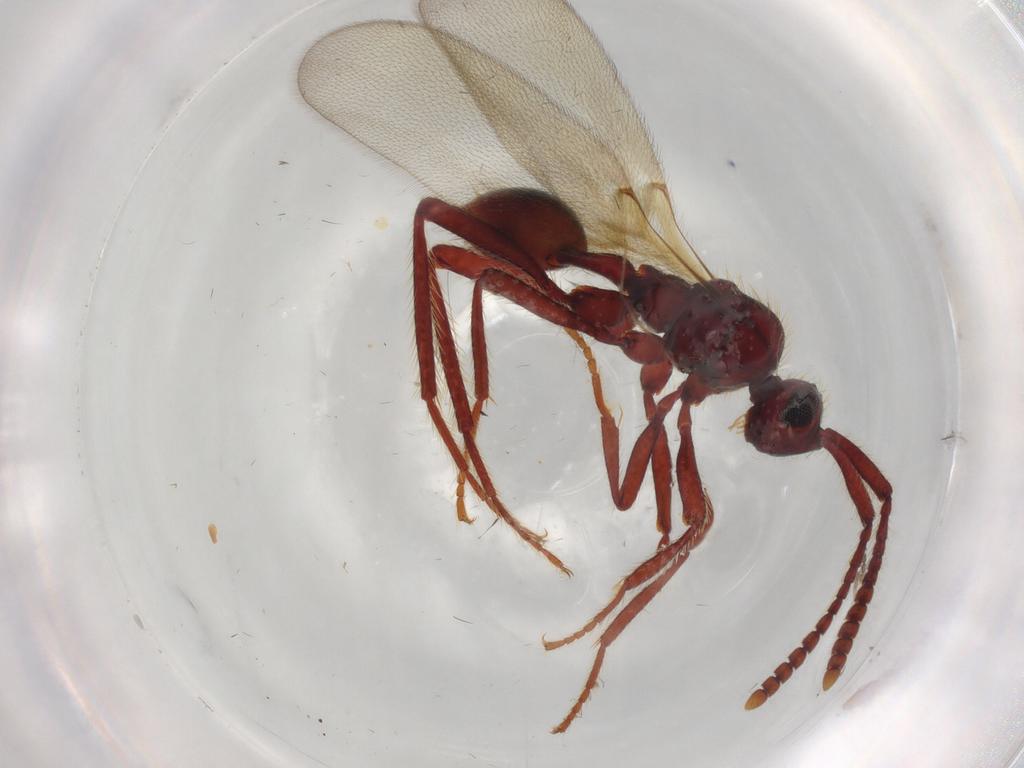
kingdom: Animalia
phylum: Arthropoda
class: Insecta
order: Hymenoptera
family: Diapriidae
